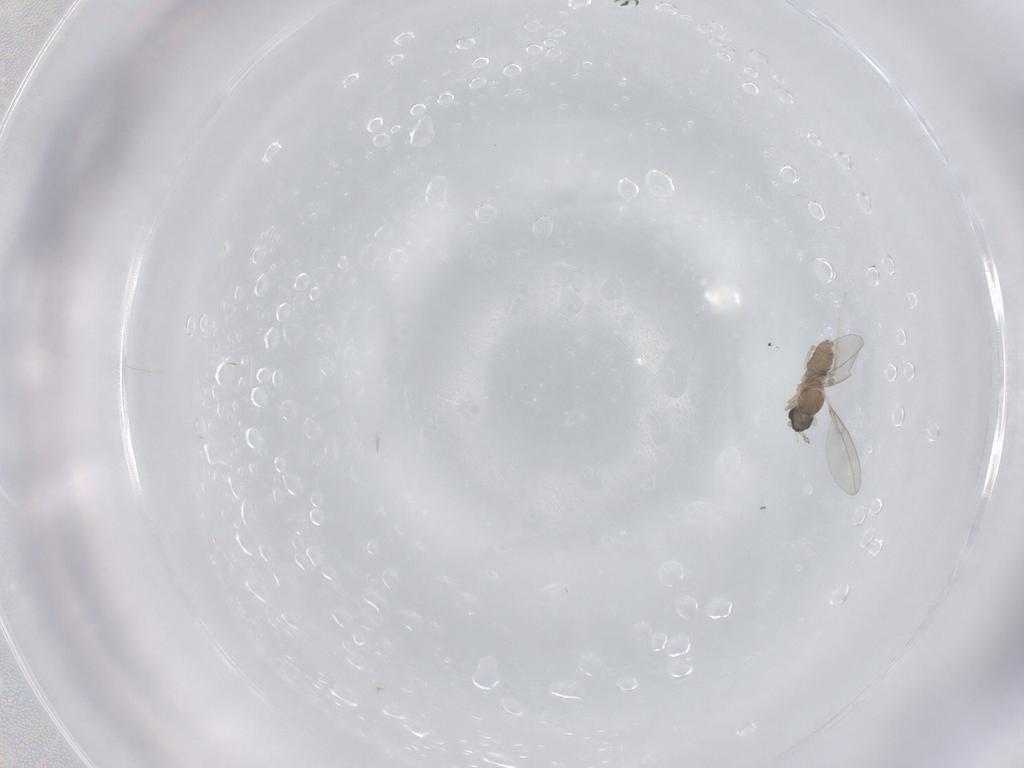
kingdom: Animalia
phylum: Arthropoda
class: Insecta
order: Diptera
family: Cecidomyiidae
